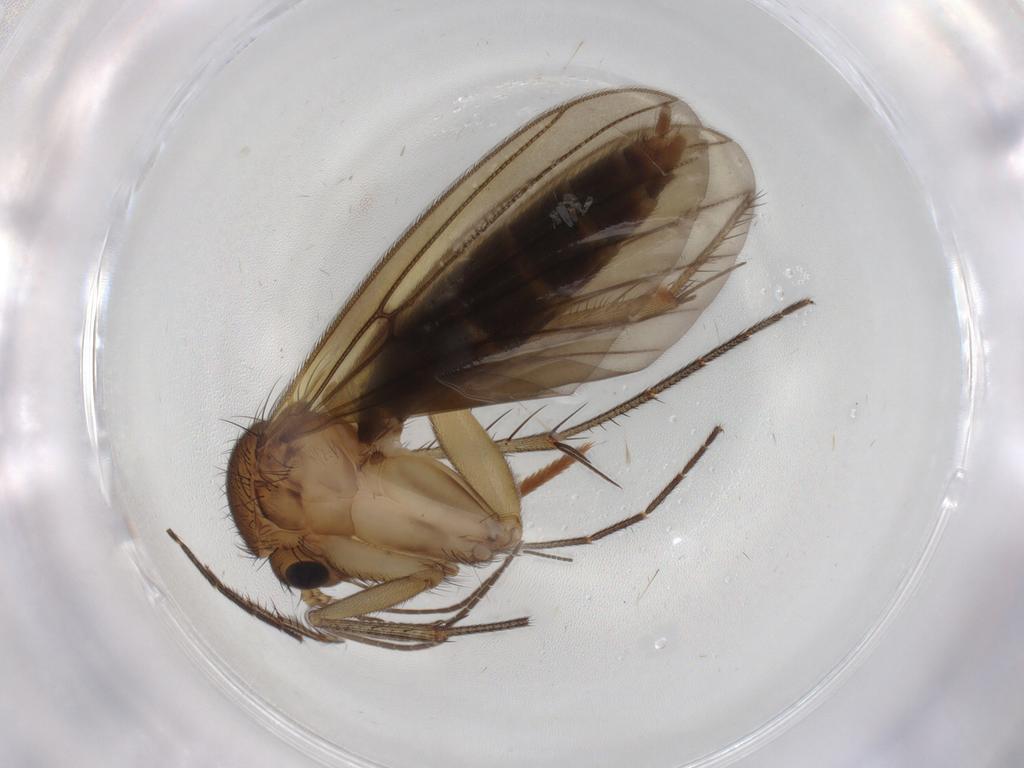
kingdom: Animalia
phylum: Arthropoda
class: Insecta
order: Diptera
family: Mycetophilidae
